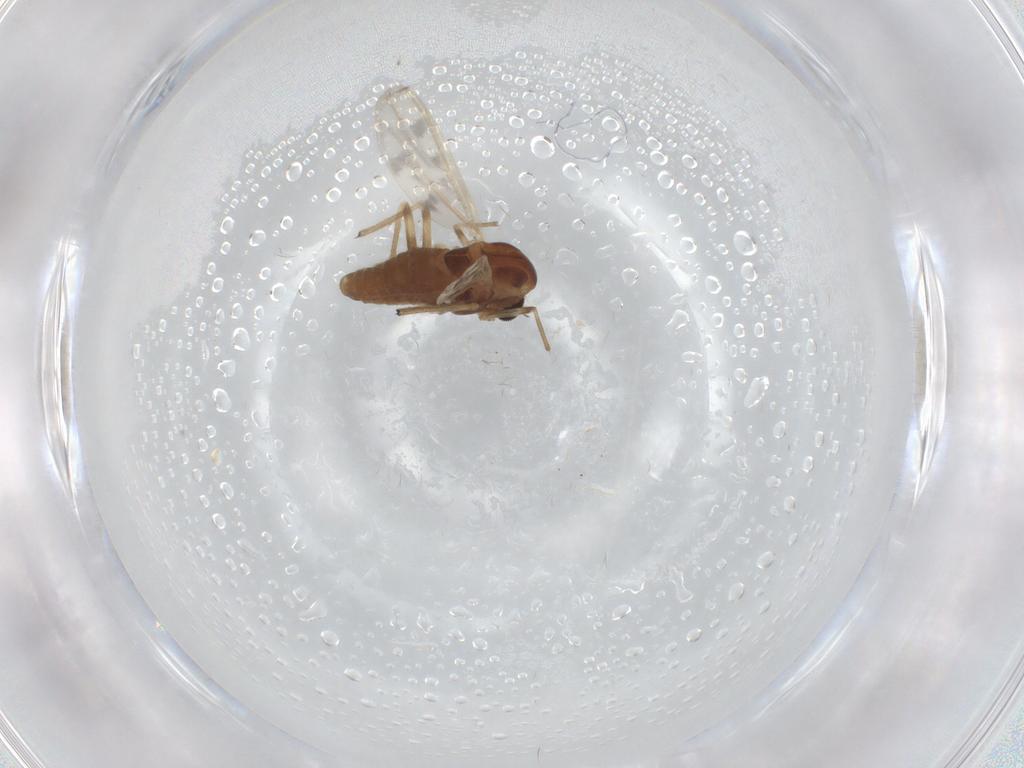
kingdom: Animalia
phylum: Arthropoda
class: Insecta
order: Diptera
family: Chironomidae
